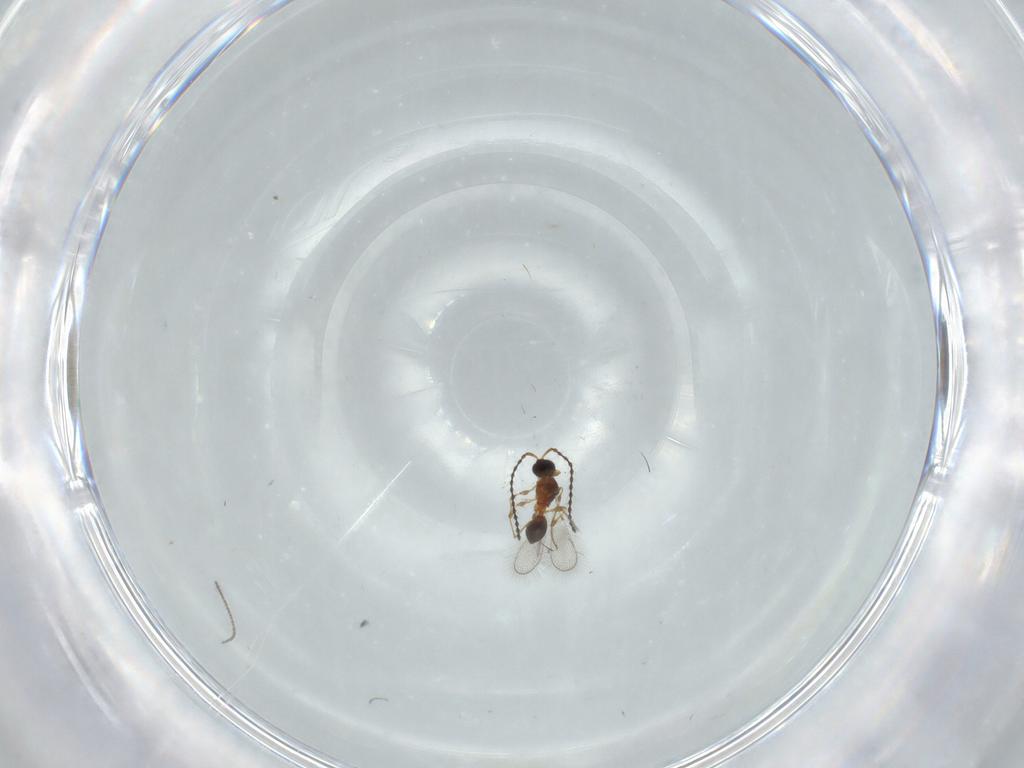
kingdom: Animalia
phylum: Arthropoda
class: Insecta
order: Hymenoptera
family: Diapriidae
